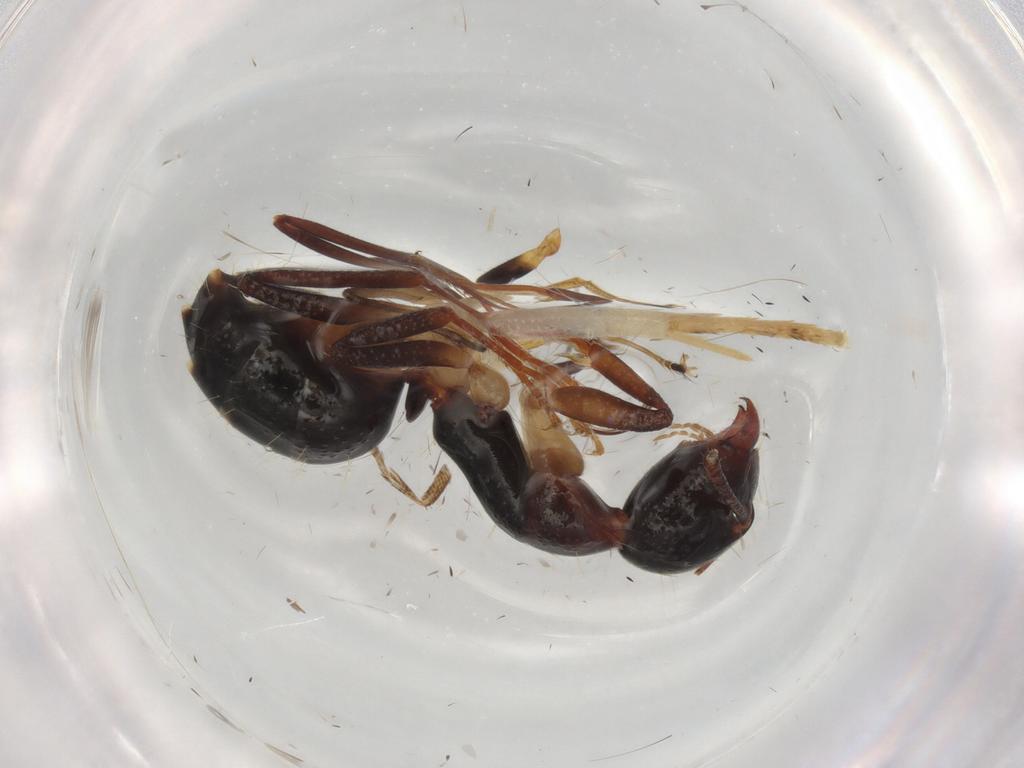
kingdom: Animalia
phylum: Arthropoda
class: Insecta
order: Hymenoptera
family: Formicidae
